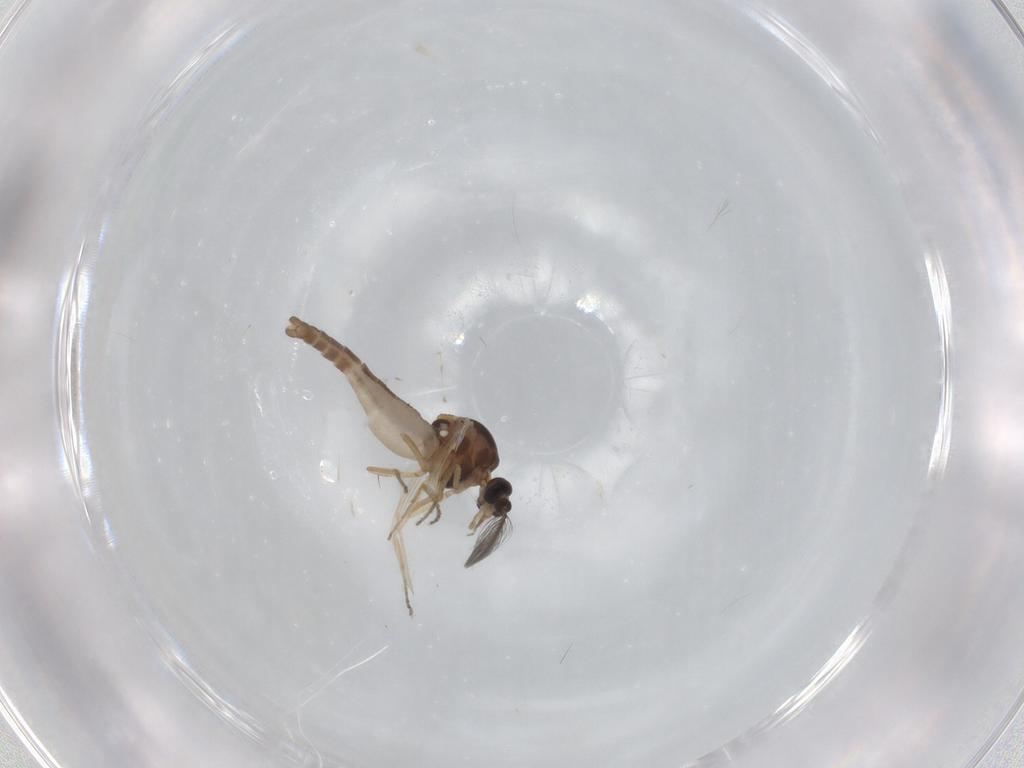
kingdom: Animalia
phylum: Arthropoda
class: Insecta
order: Diptera
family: Ceratopogonidae
